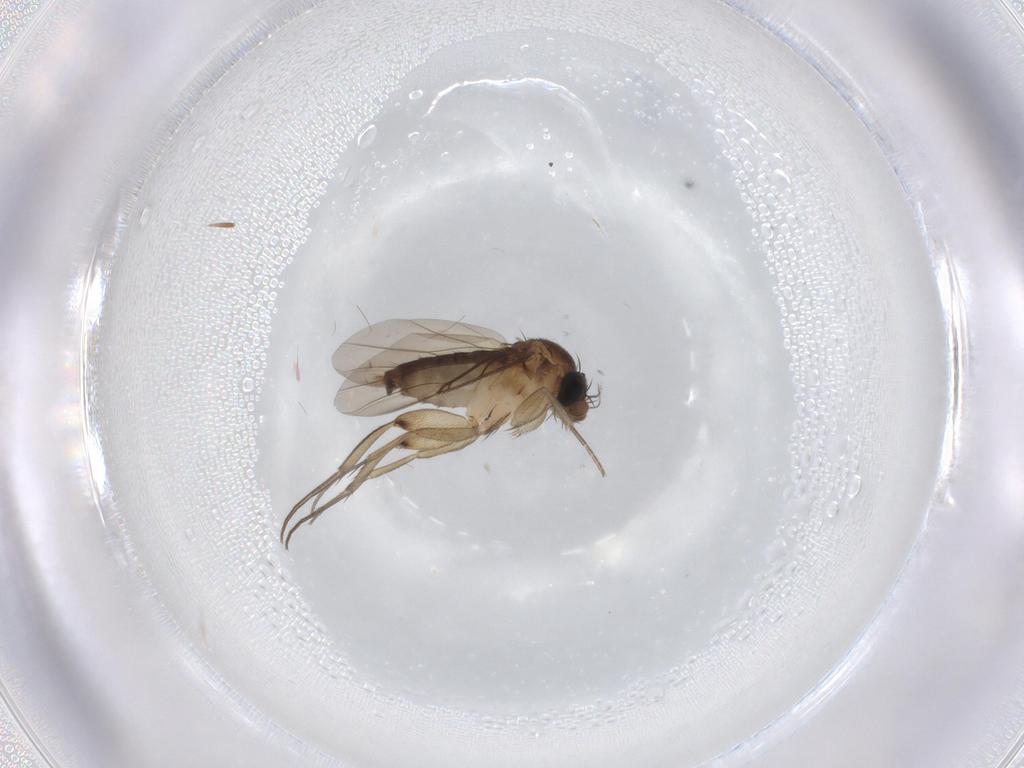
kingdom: Animalia
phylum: Arthropoda
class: Insecta
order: Diptera
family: Phoridae
